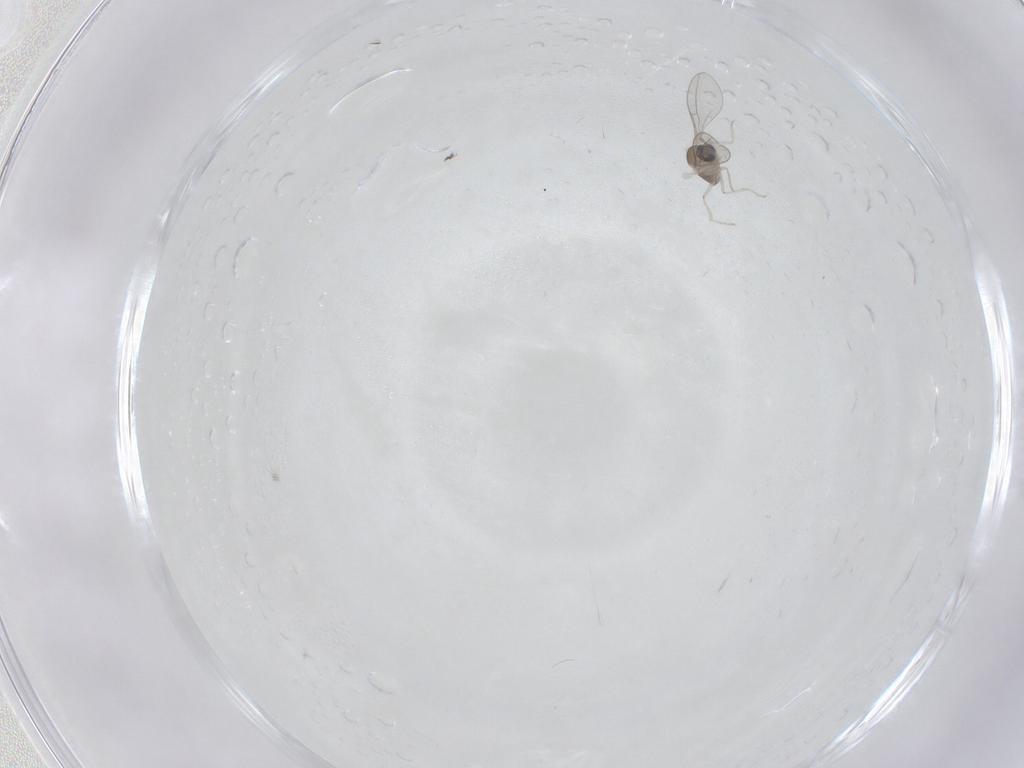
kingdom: Animalia
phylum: Arthropoda
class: Insecta
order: Diptera
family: Cecidomyiidae
